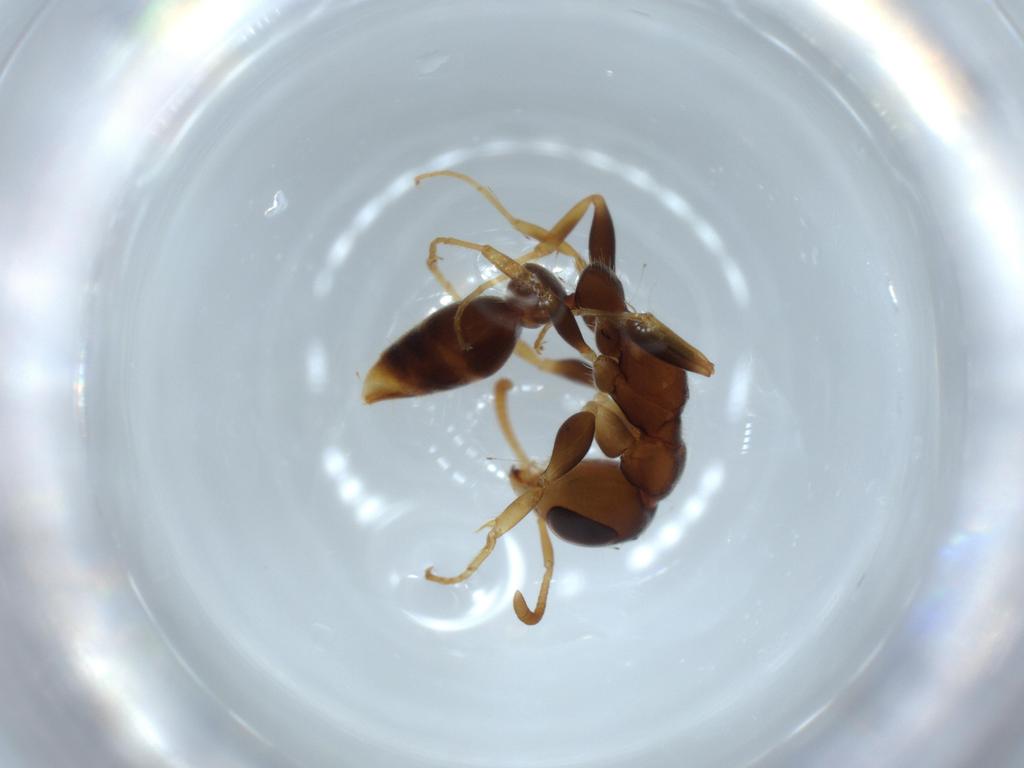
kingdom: Animalia
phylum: Arthropoda
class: Insecta
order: Hymenoptera
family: Formicidae
